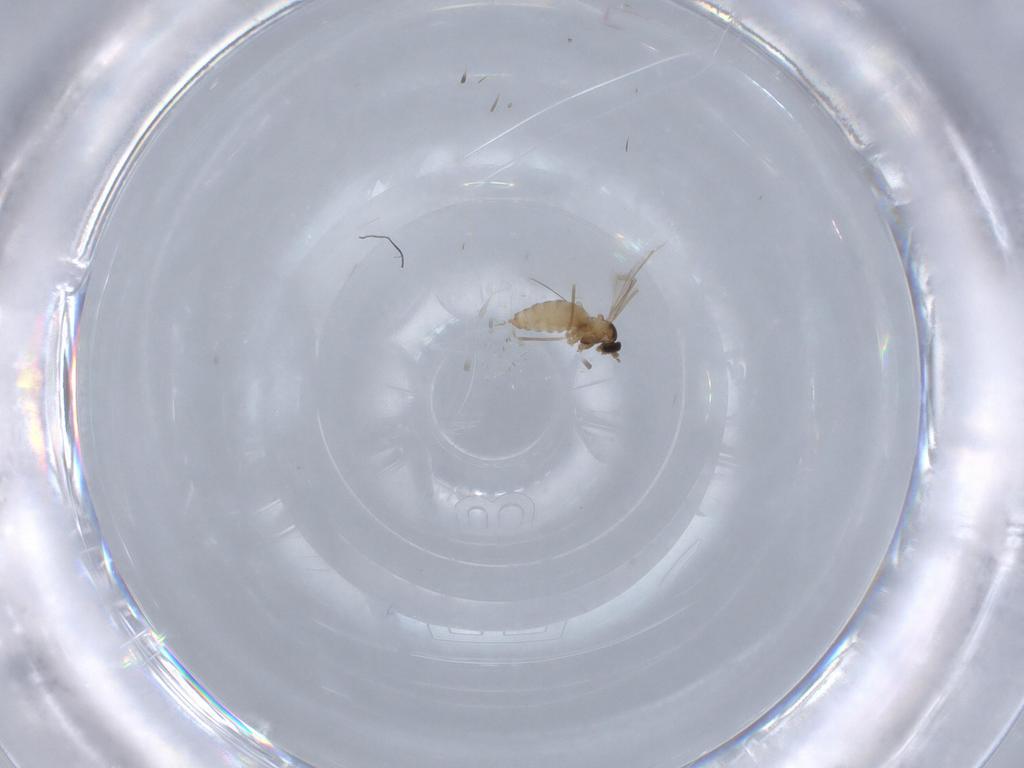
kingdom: Animalia
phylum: Arthropoda
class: Insecta
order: Diptera
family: Cecidomyiidae
